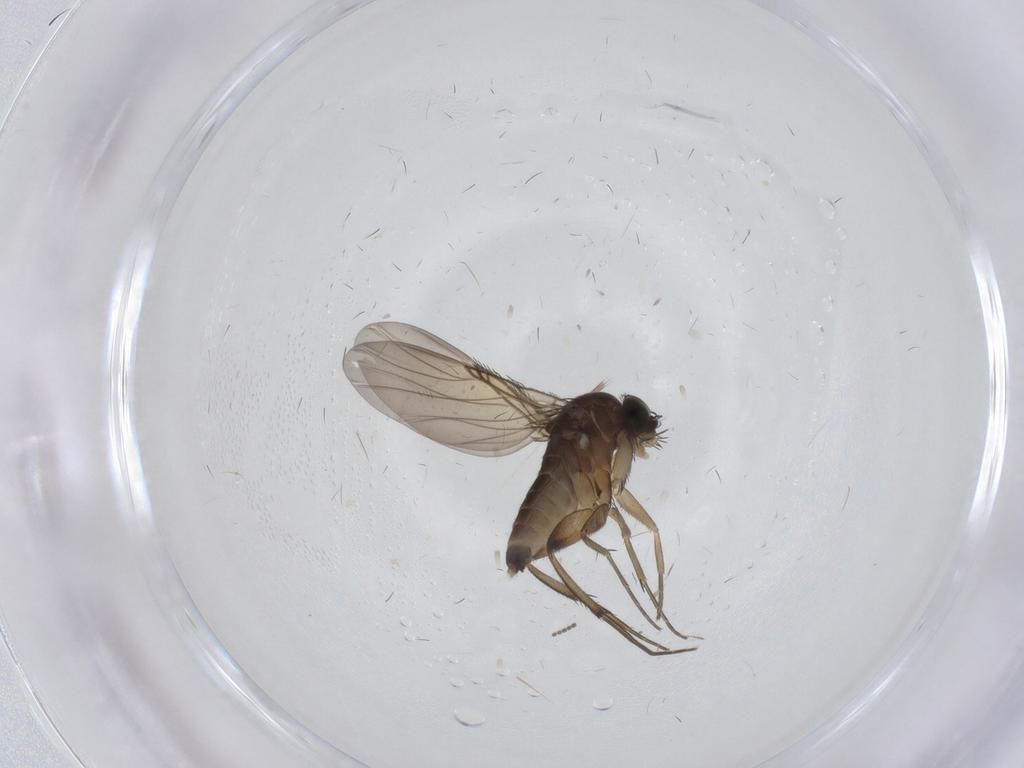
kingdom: Animalia
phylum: Arthropoda
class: Insecta
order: Diptera
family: Phoridae
